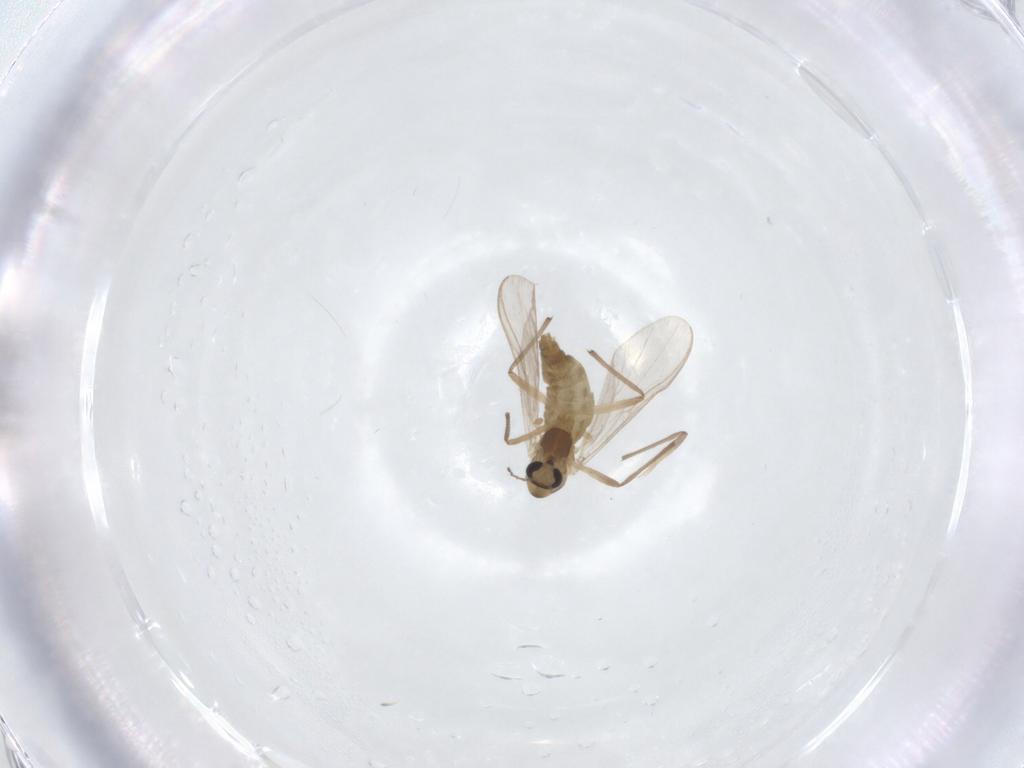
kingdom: Animalia
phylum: Arthropoda
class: Insecta
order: Diptera
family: Chironomidae
